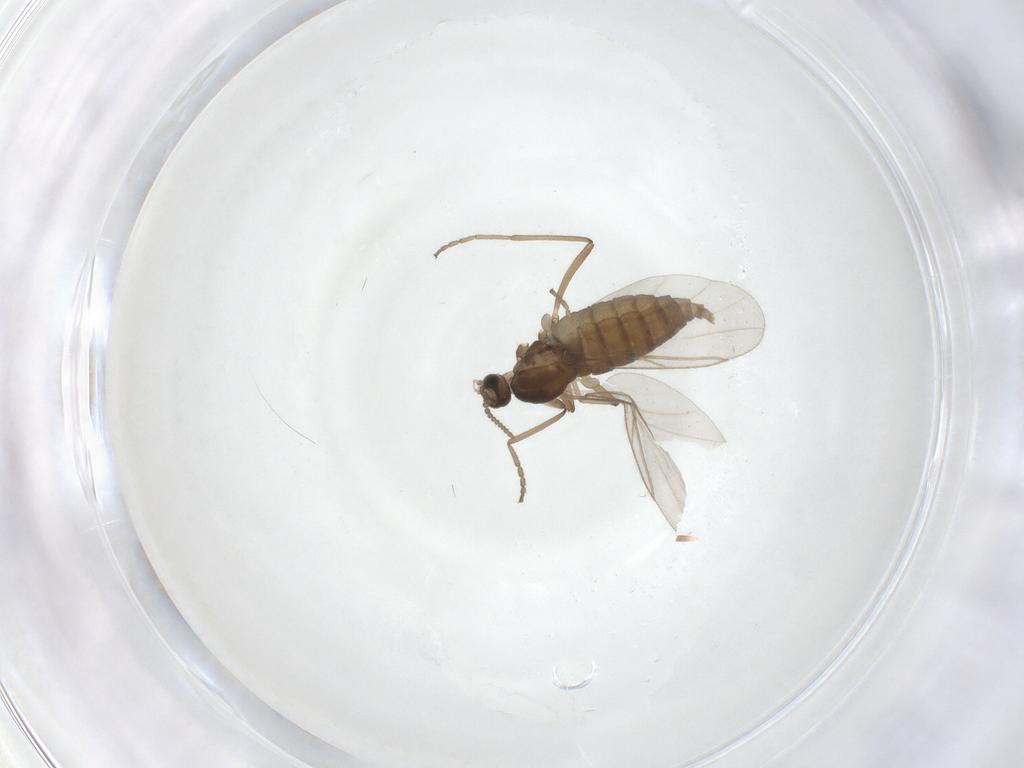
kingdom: Animalia
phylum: Arthropoda
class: Insecta
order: Diptera
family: Cecidomyiidae
